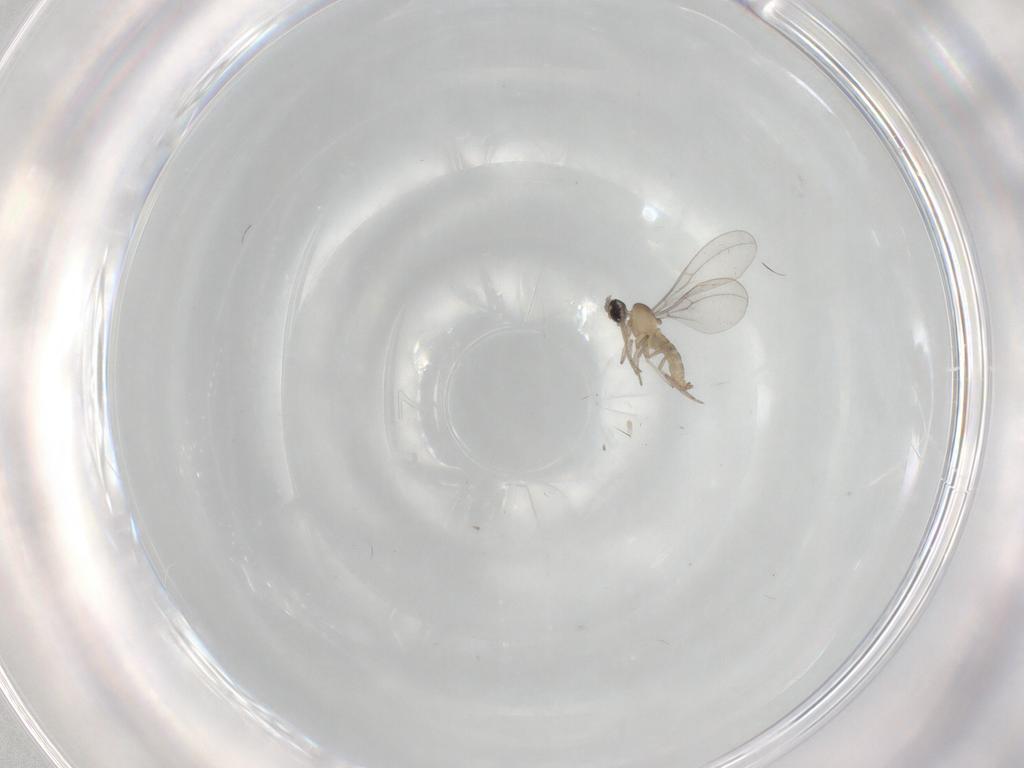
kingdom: Animalia
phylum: Arthropoda
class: Insecta
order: Diptera
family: Cecidomyiidae
